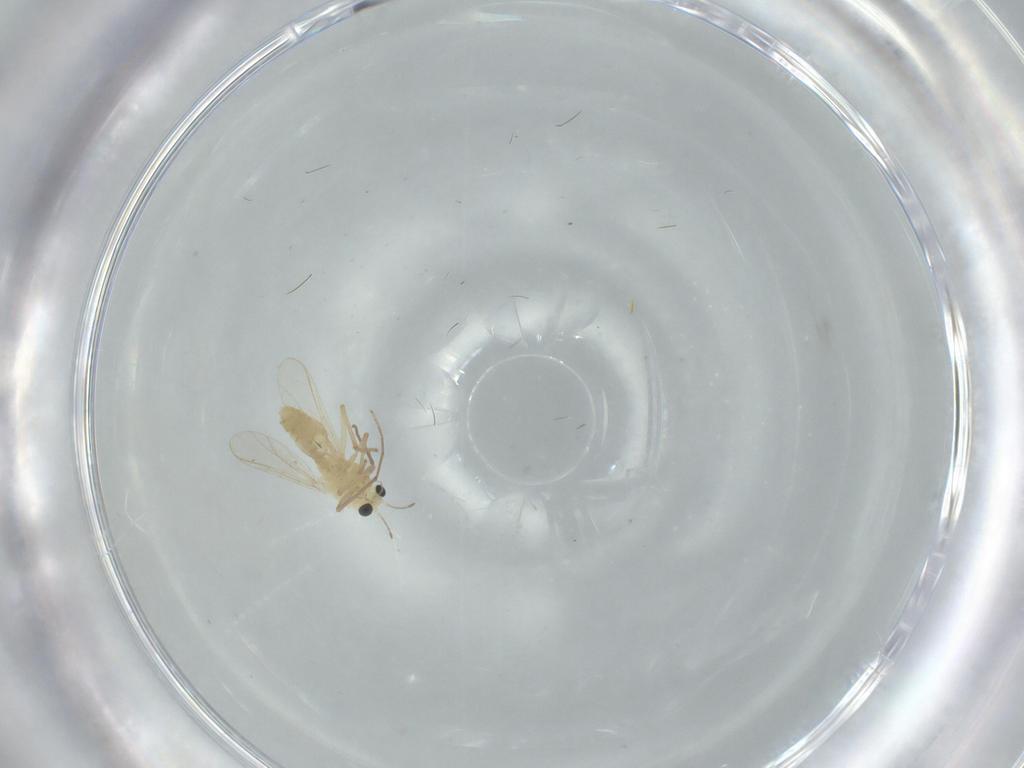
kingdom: Animalia
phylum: Arthropoda
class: Insecta
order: Diptera
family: Chironomidae
